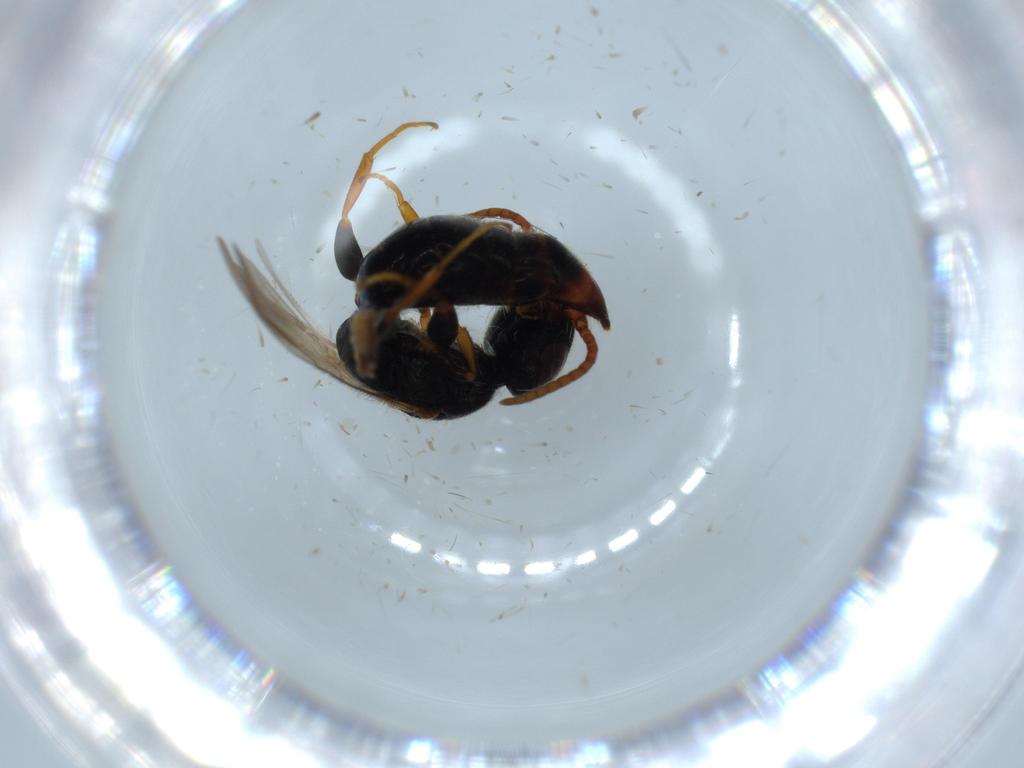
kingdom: Animalia
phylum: Arthropoda
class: Insecta
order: Hymenoptera
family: Bethylidae
